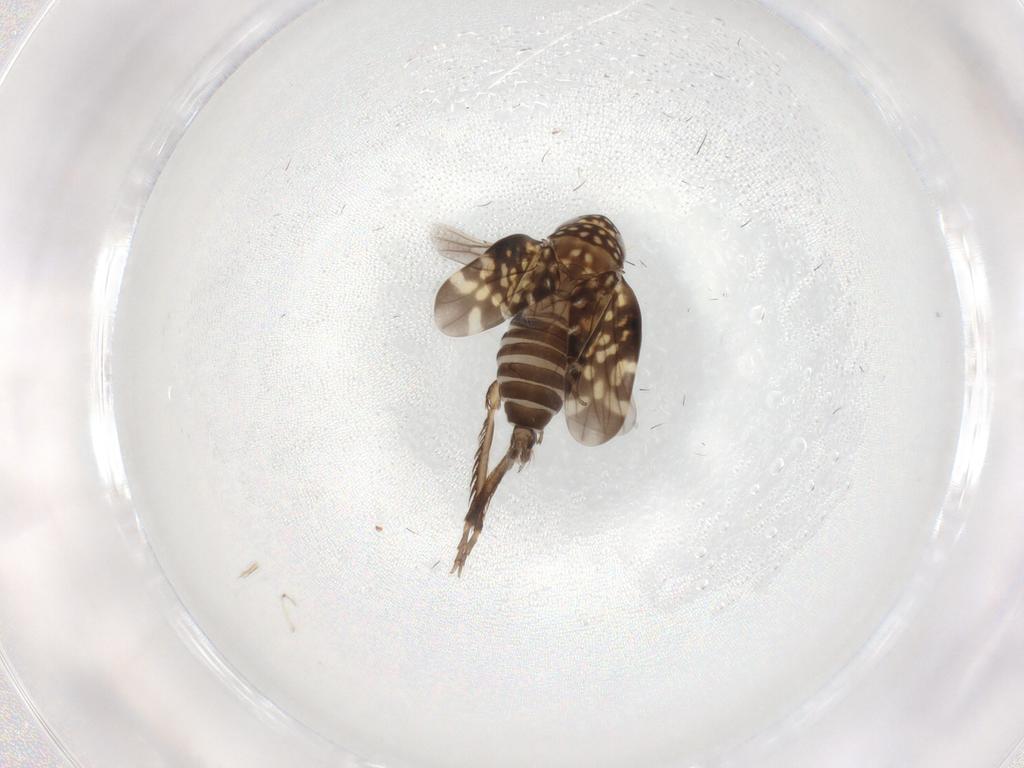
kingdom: Animalia
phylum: Arthropoda
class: Insecta
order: Hemiptera
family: Cicadellidae
